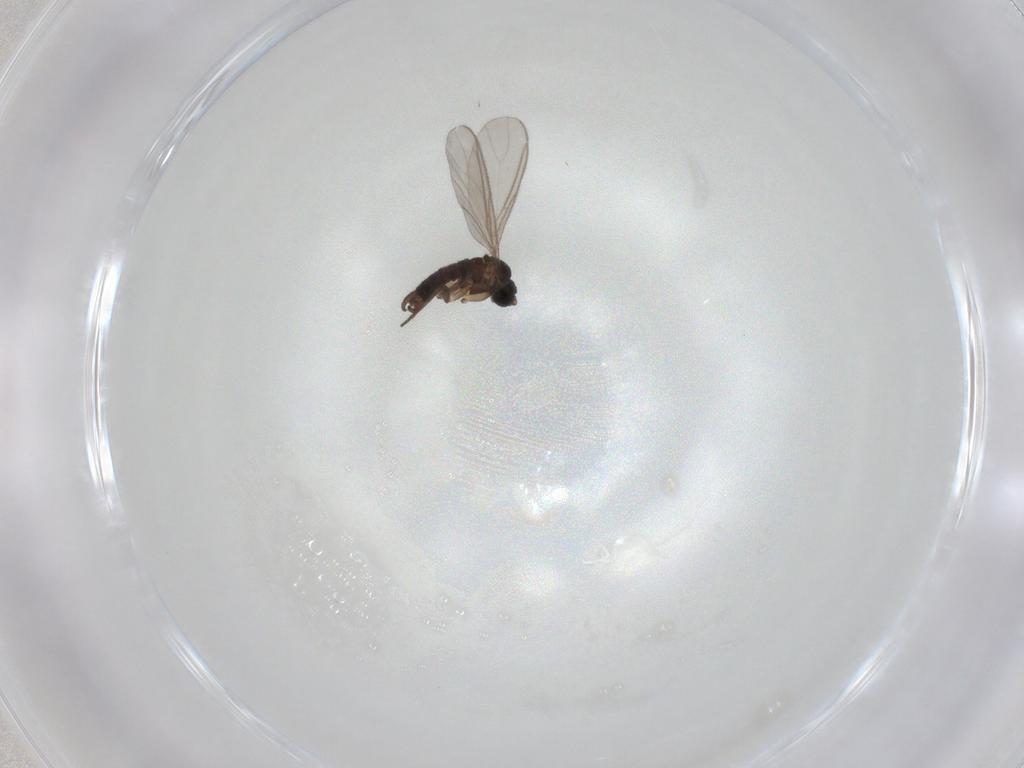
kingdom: Animalia
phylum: Arthropoda
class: Insecta
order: Diptera
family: Sciaridae
